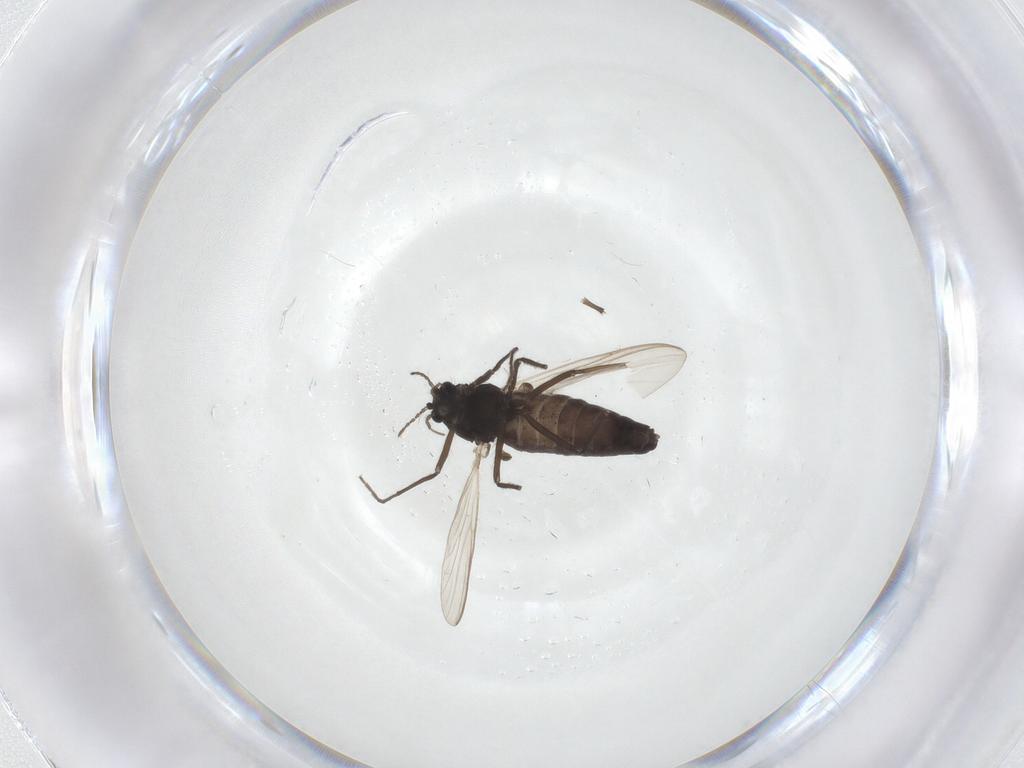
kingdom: Animalia
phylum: Arthropoda
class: Insecta
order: Diptera
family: Chironomidae
